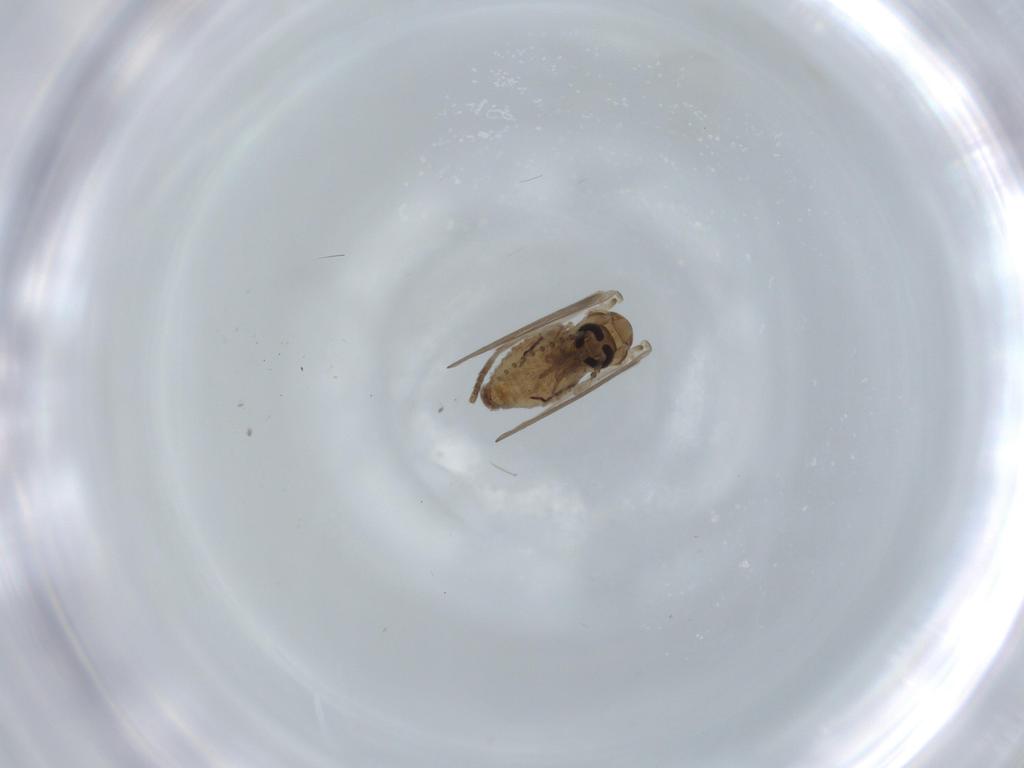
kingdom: Animalia
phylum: Arthropoda
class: Insecta
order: Diptera
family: Psychodidae
